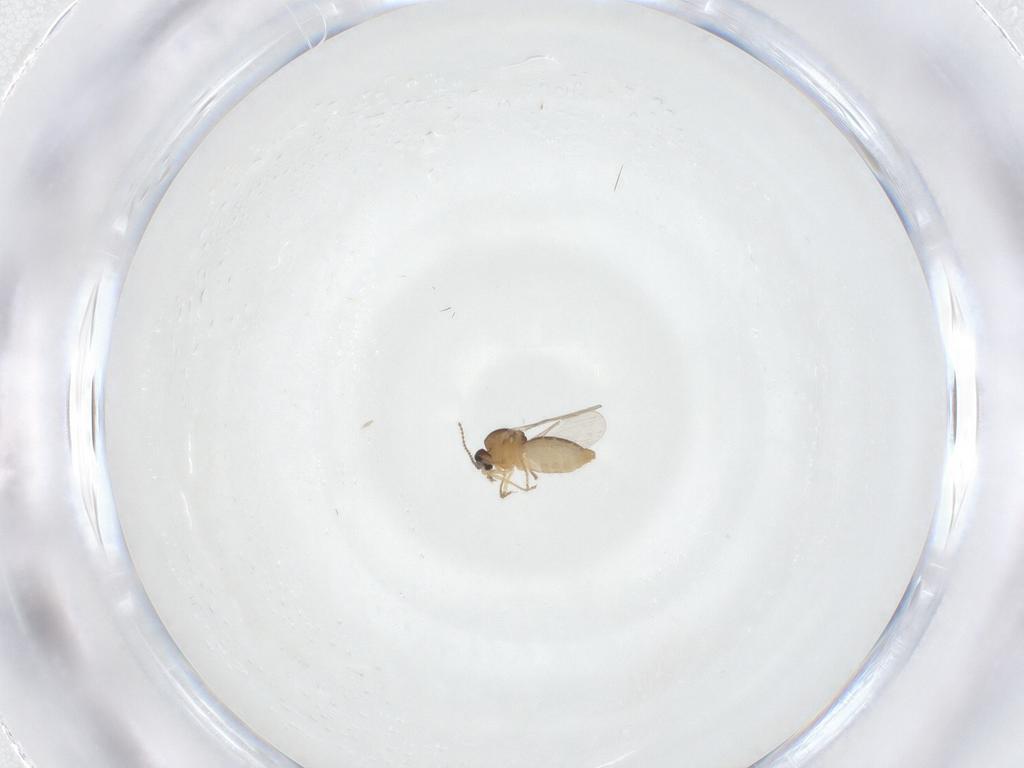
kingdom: Animalia
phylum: Arthropoda
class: Insecta
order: Diptera
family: Ceratopogonidae
